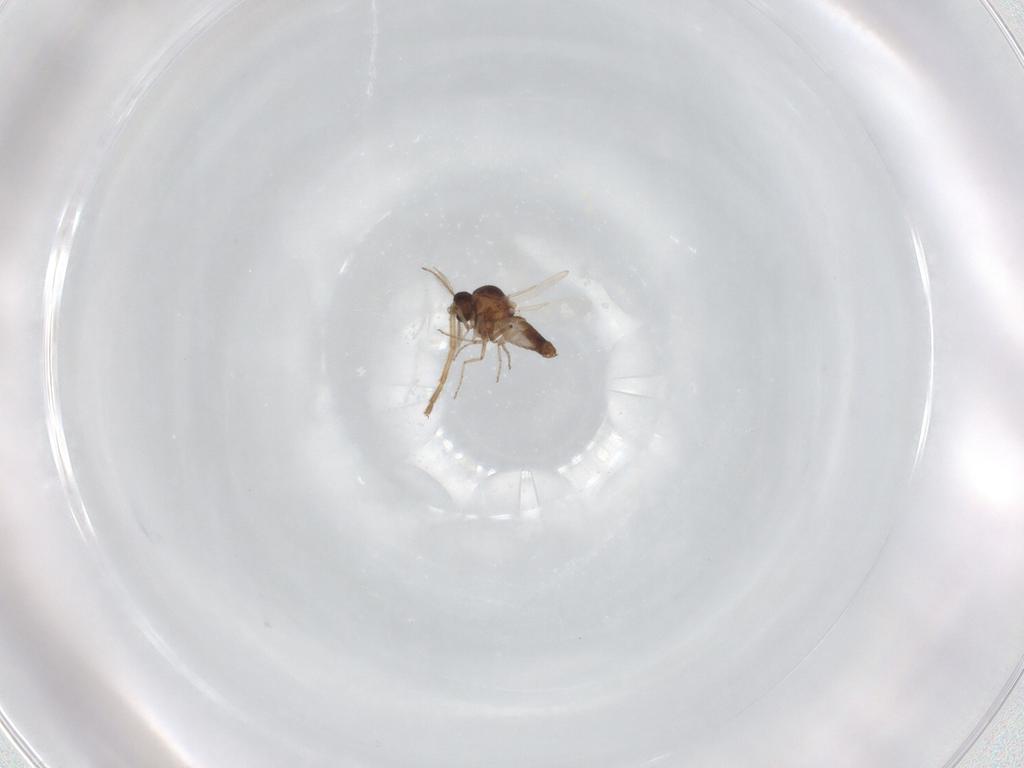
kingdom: Animalia
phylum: Arthropoda
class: Insecta
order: Diptera
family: Ceratopogonidae
